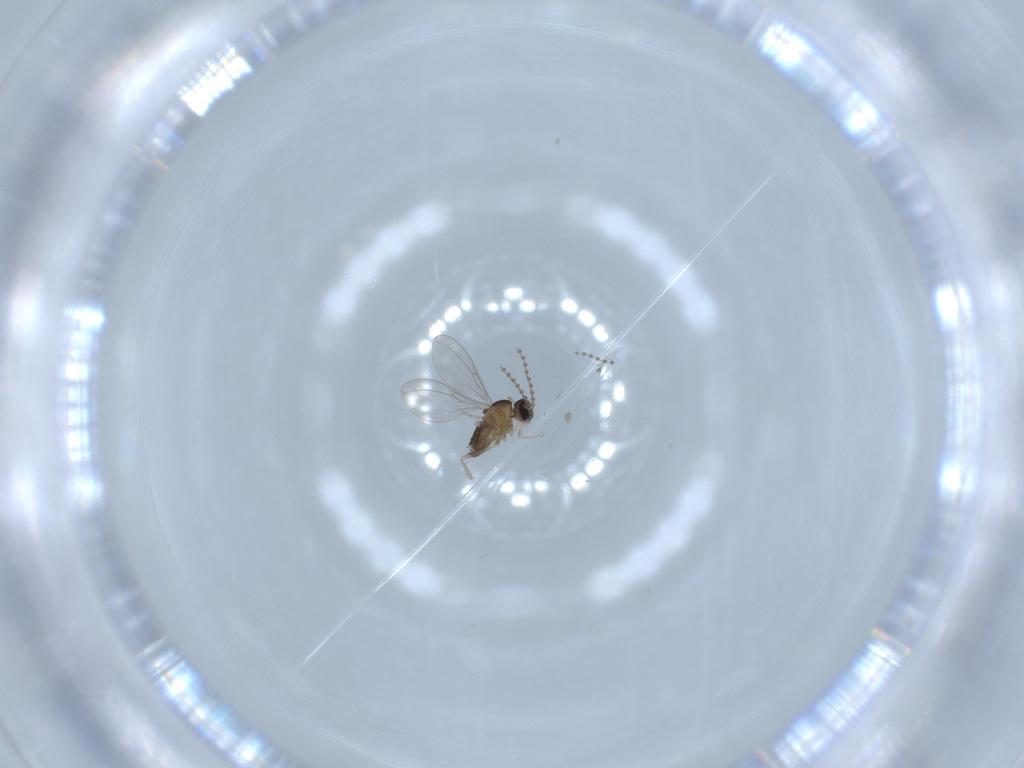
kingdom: Animalia
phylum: Arthropoda
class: Insecta
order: Diptera
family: Cecidomyiidae
